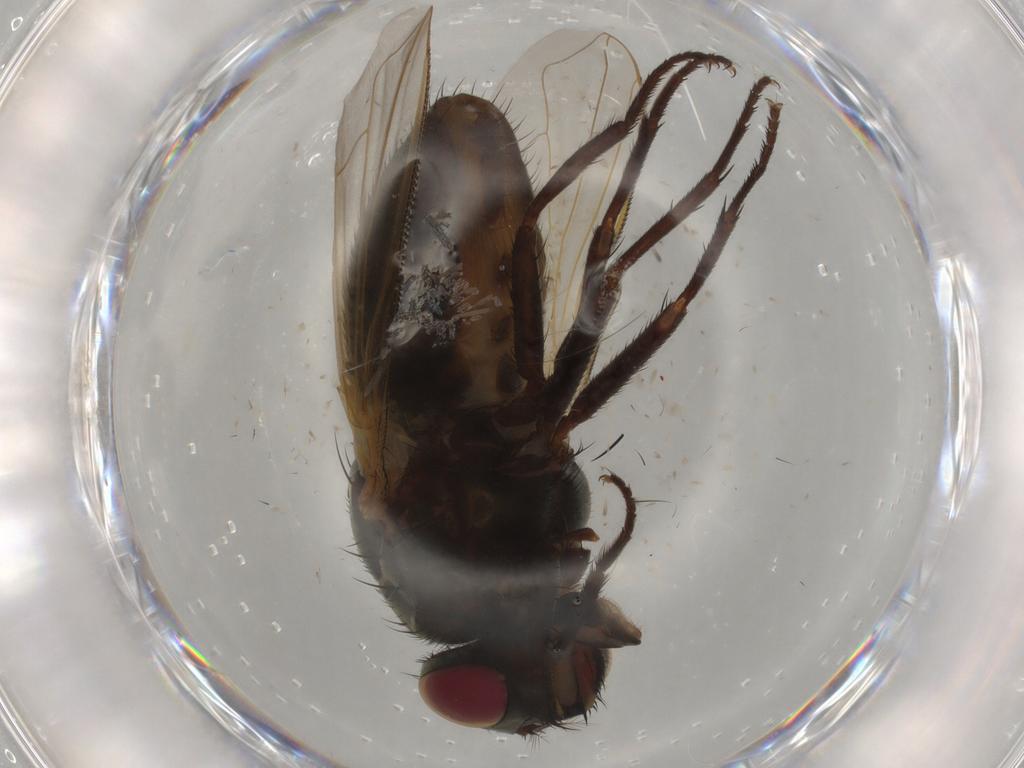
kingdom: Animalia
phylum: Arthropoda
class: Insecta
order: Diptera
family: Muscidae
